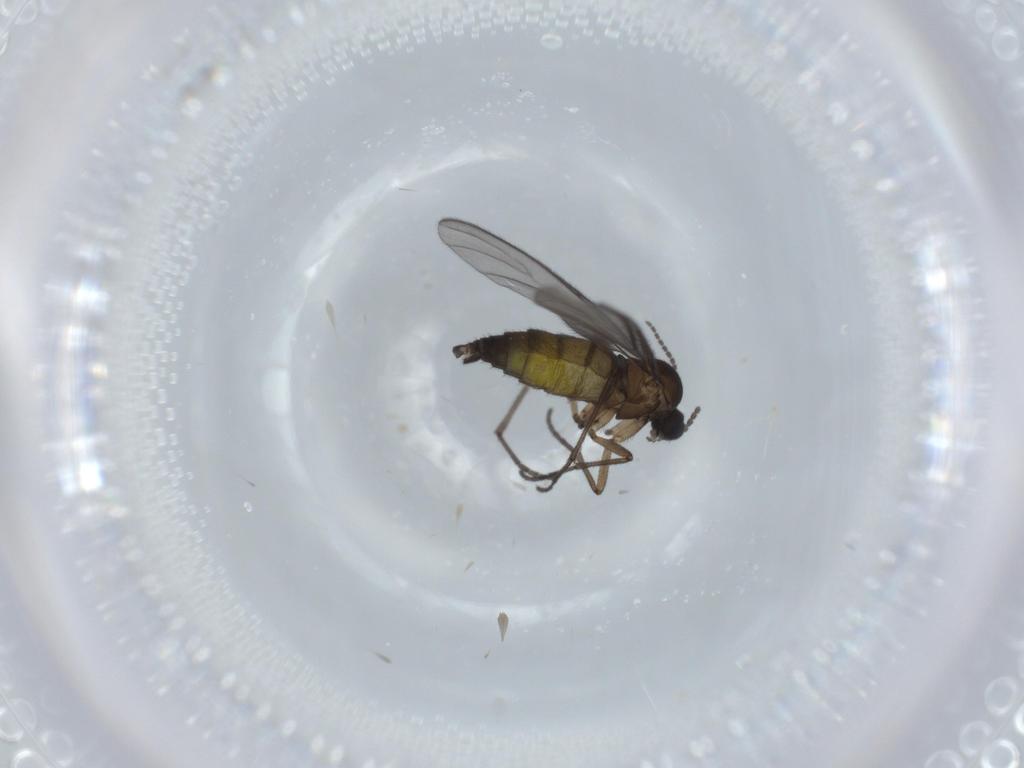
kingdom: Animalia
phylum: Arthropoda
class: Insecta
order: Diptera
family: Sciaridae
